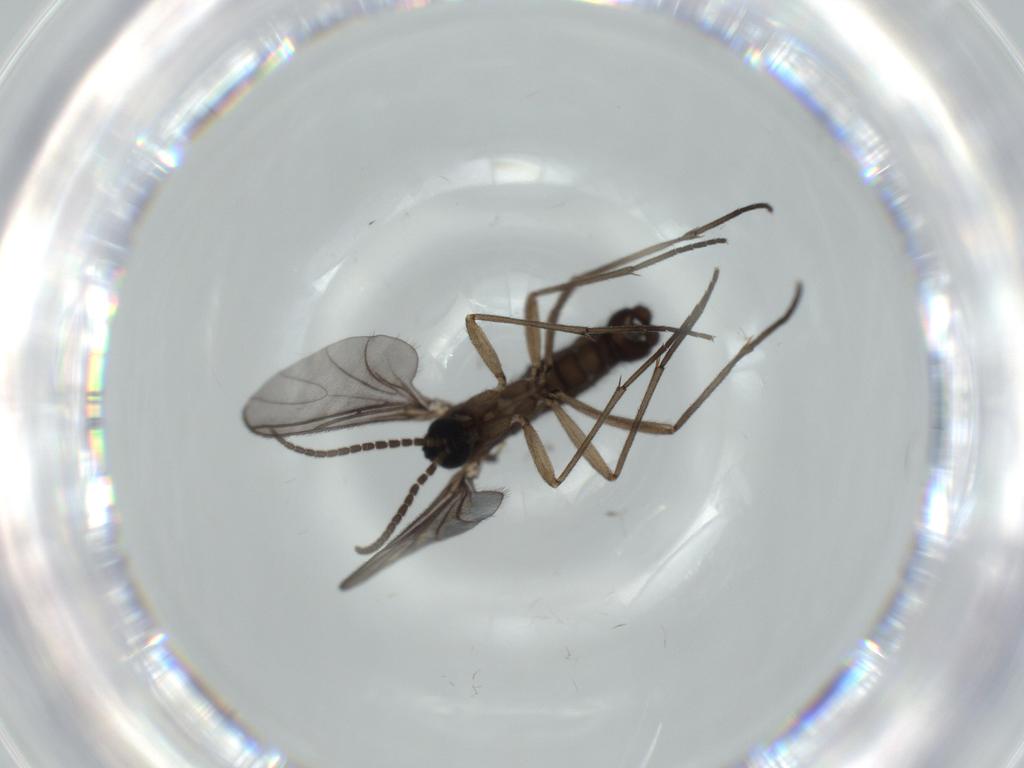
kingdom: Animalia
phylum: Arthropoda
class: Insecta
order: Diptera
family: Sciaridae
